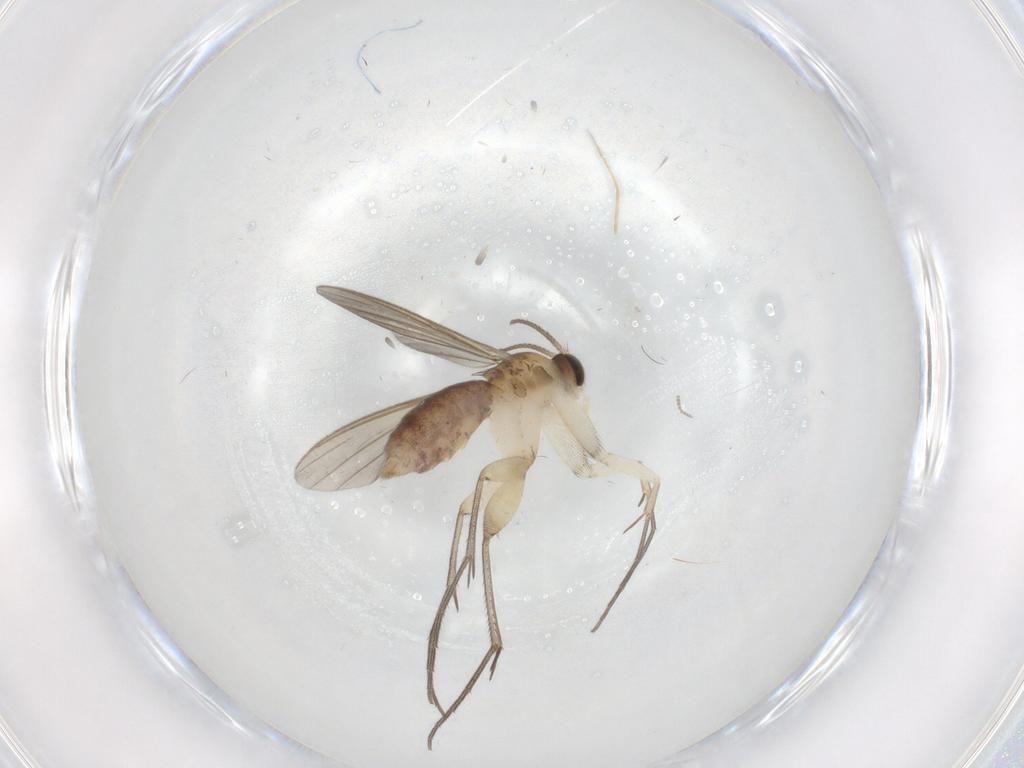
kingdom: Animalia
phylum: Arthropoda
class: Insecta
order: Diptera
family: Mycetophilidae
